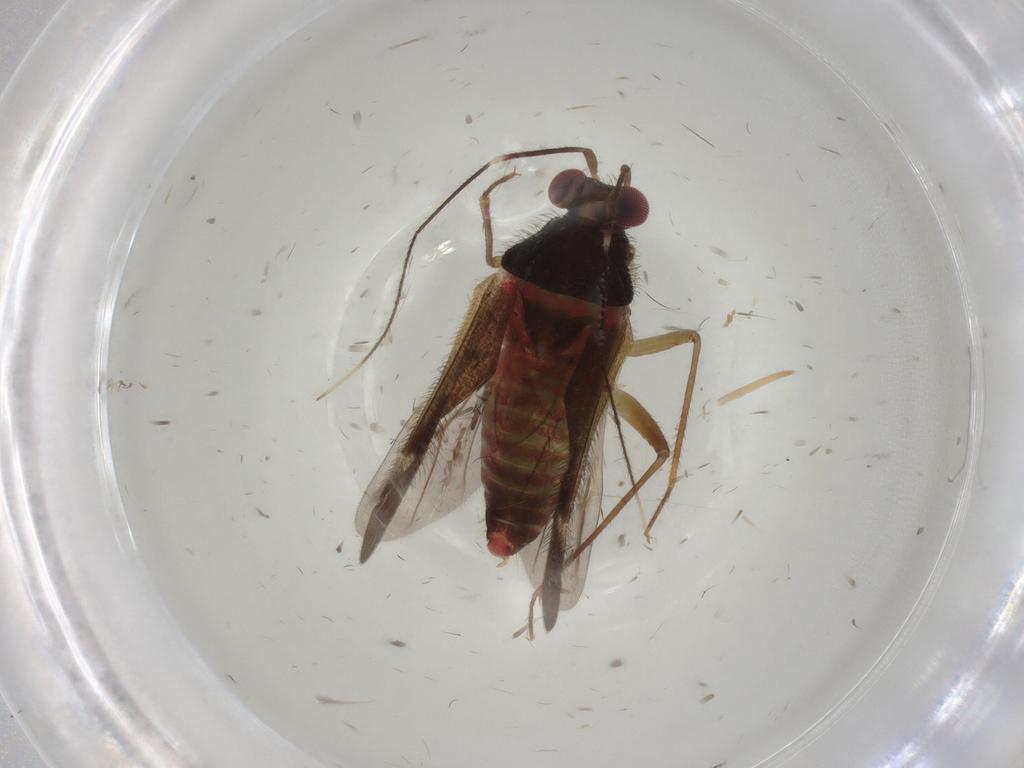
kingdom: Animalia
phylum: Arthropoda
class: Insecta
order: Hemiptera
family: Miridae
